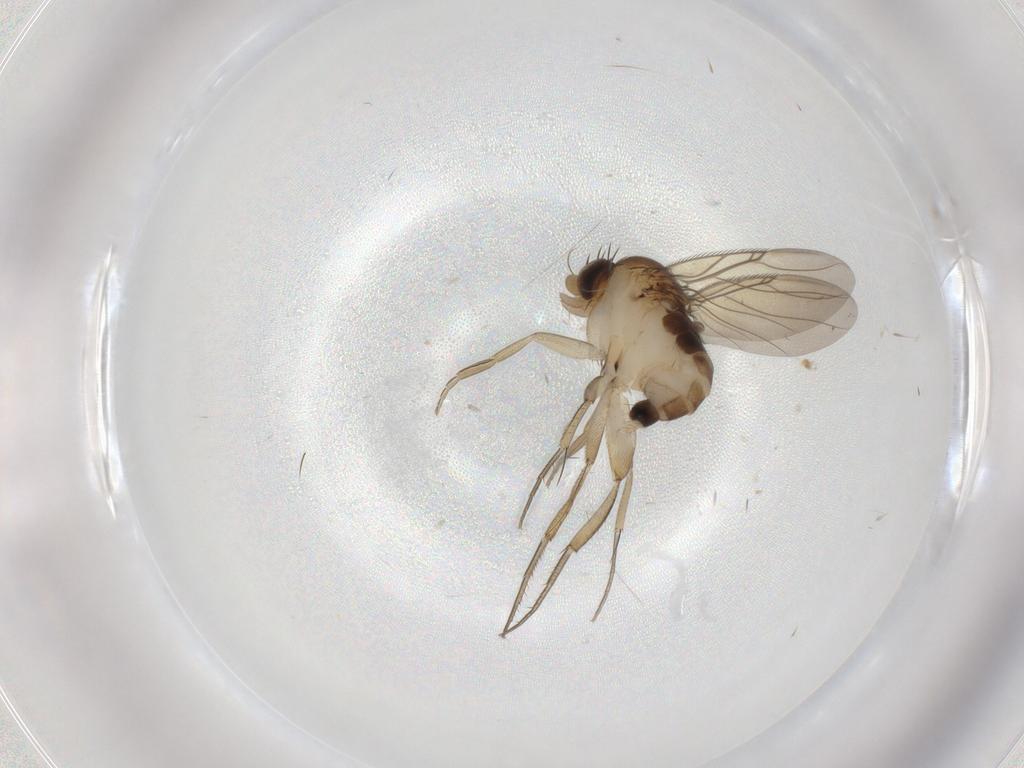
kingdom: Animalia
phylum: Arthropoda
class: Insecta
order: Diptera
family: Phoridae
